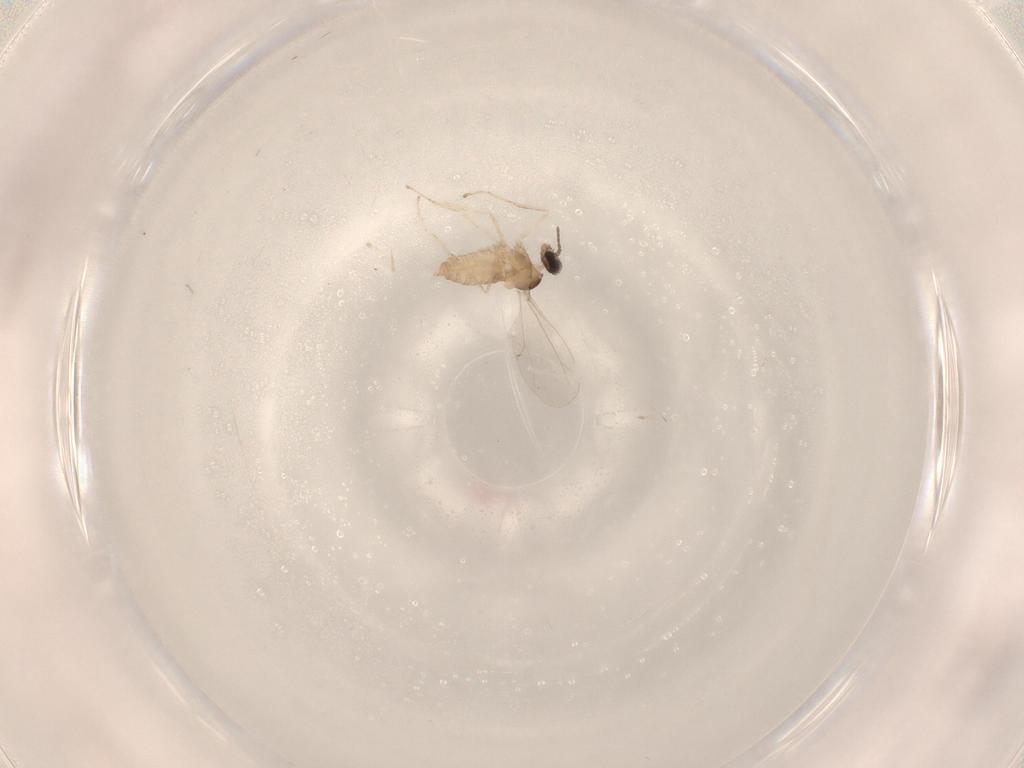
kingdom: Animalia
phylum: Arthropoda
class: Insecta
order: Diptera
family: Cecidomyiidae
